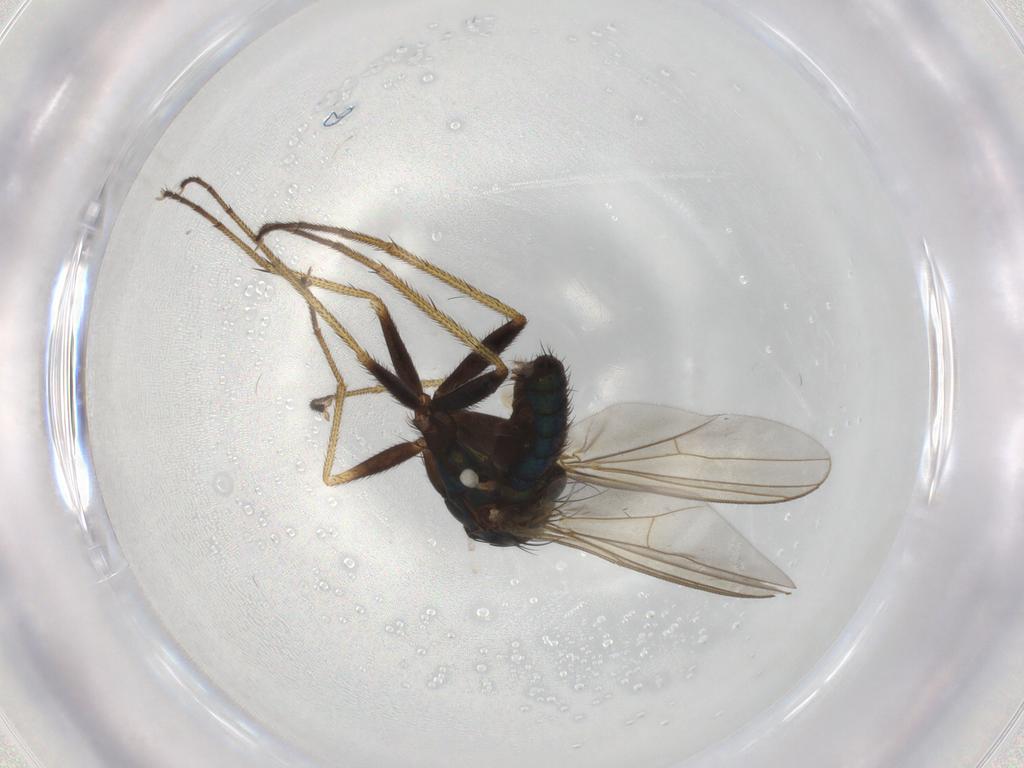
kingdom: Animalia
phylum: Arthropoda
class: Insecta
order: Diptera
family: Dolichopodidae
